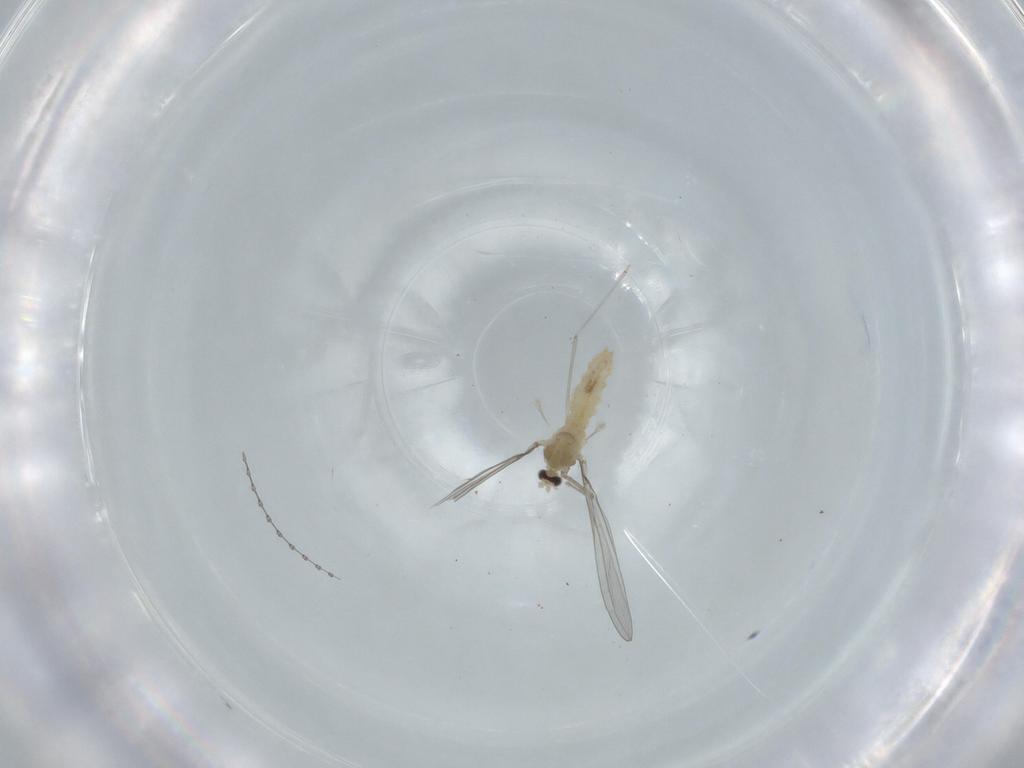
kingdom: Animalia
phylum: Arthropoda
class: Insecta
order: Diptera
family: Cecidomyiidae
